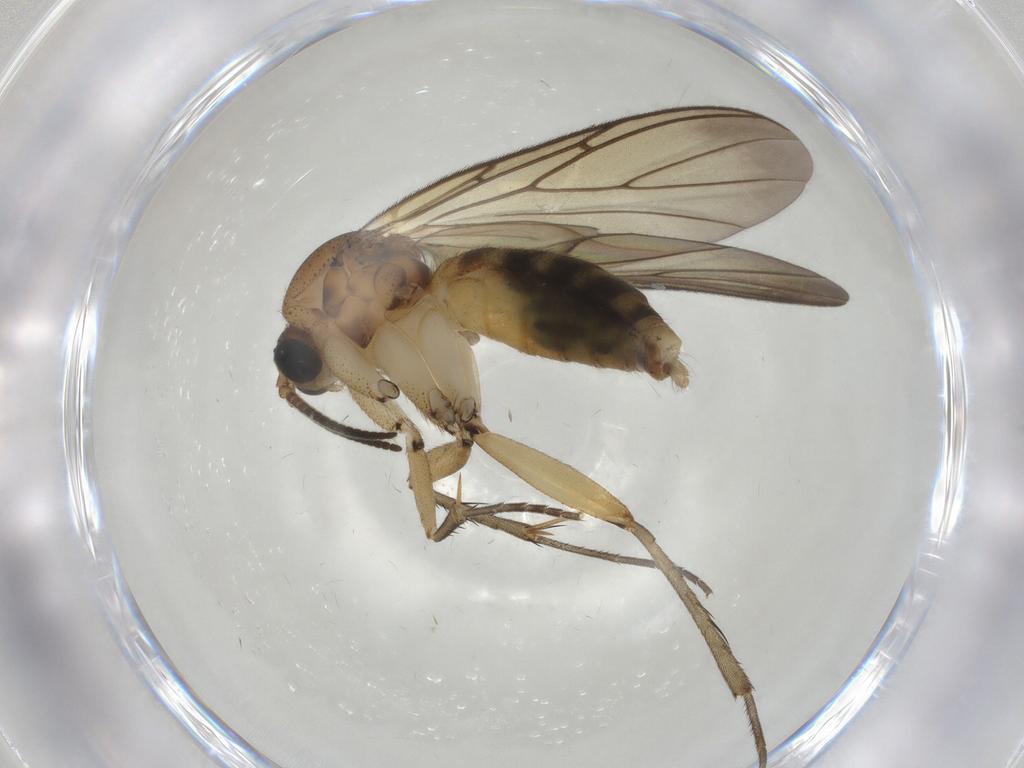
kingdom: Animalia
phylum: Arthropoda
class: Insecta
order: Diptera
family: Mycetophilidae
